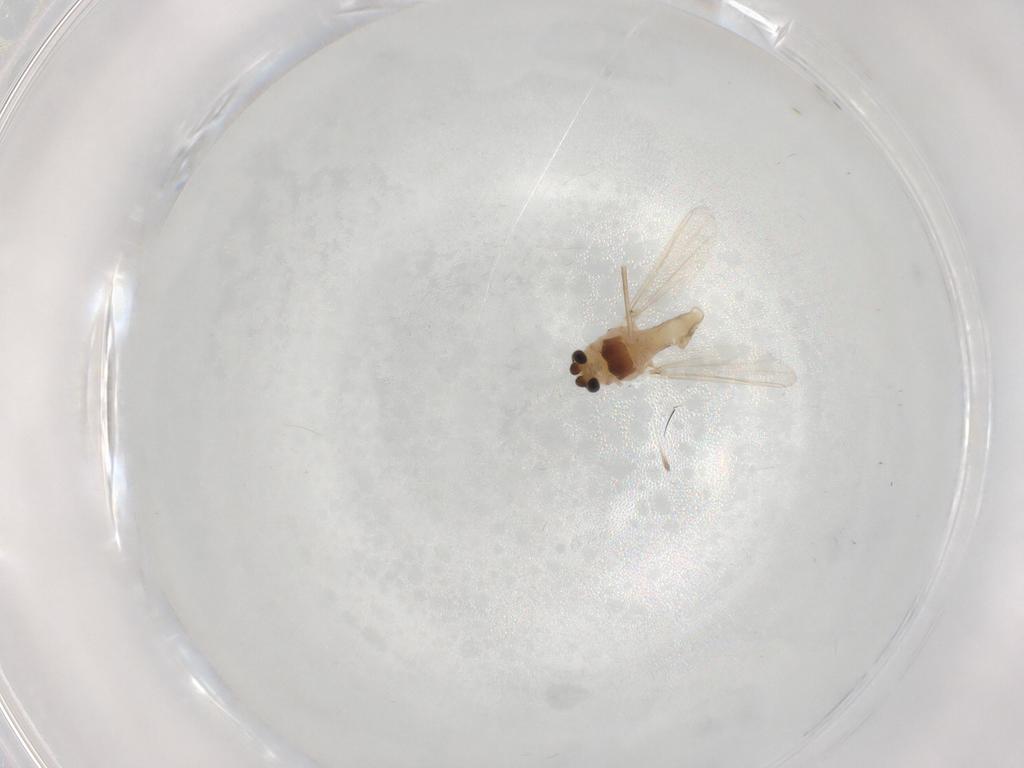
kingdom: Animalia
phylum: Arthropoda
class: Insecta
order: Diptera
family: Chironomidae
